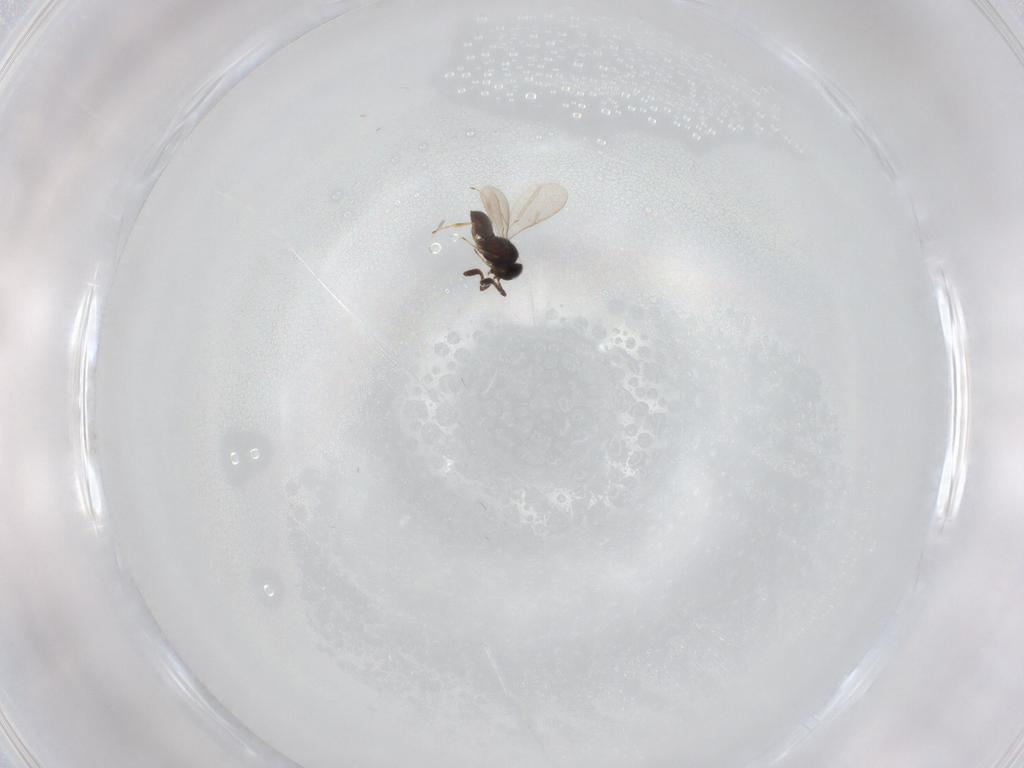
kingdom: Animalia
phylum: Arthropoda
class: Insecta
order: Hymenoptera
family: Scelionidae
